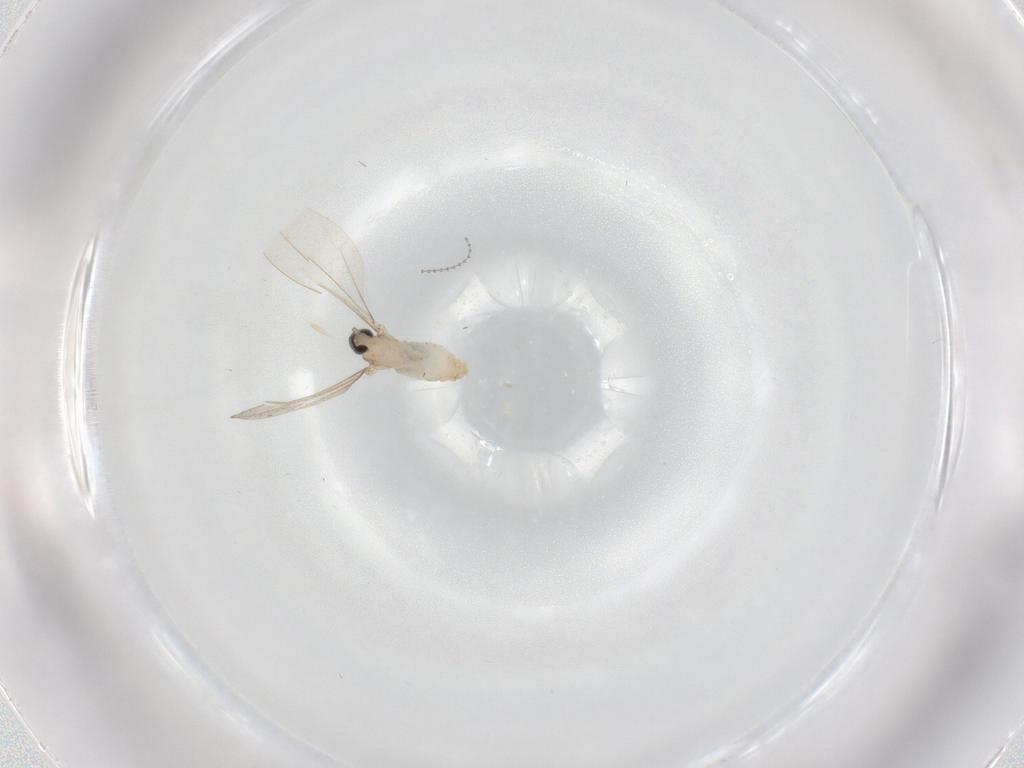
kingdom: Animalia
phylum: Arthropoda
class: Insecta
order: Diptera
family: Cecidomyiidae
